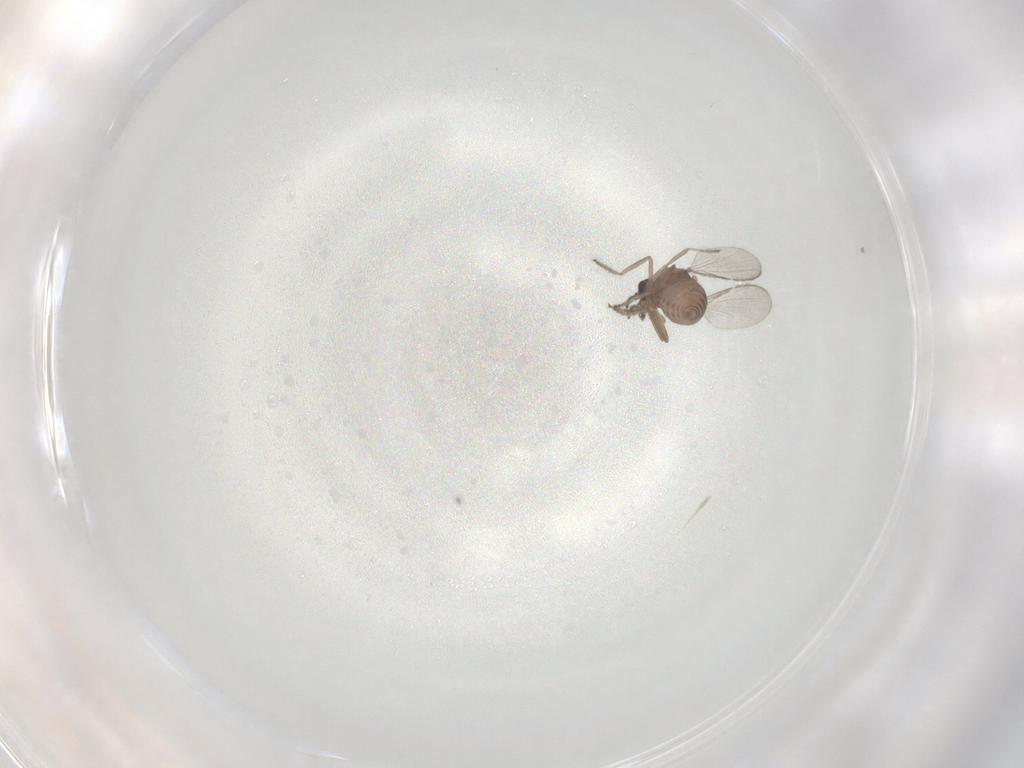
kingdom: Animalia
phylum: Arthropoda
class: Insecta
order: Diptera
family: Ceratopogonidae
